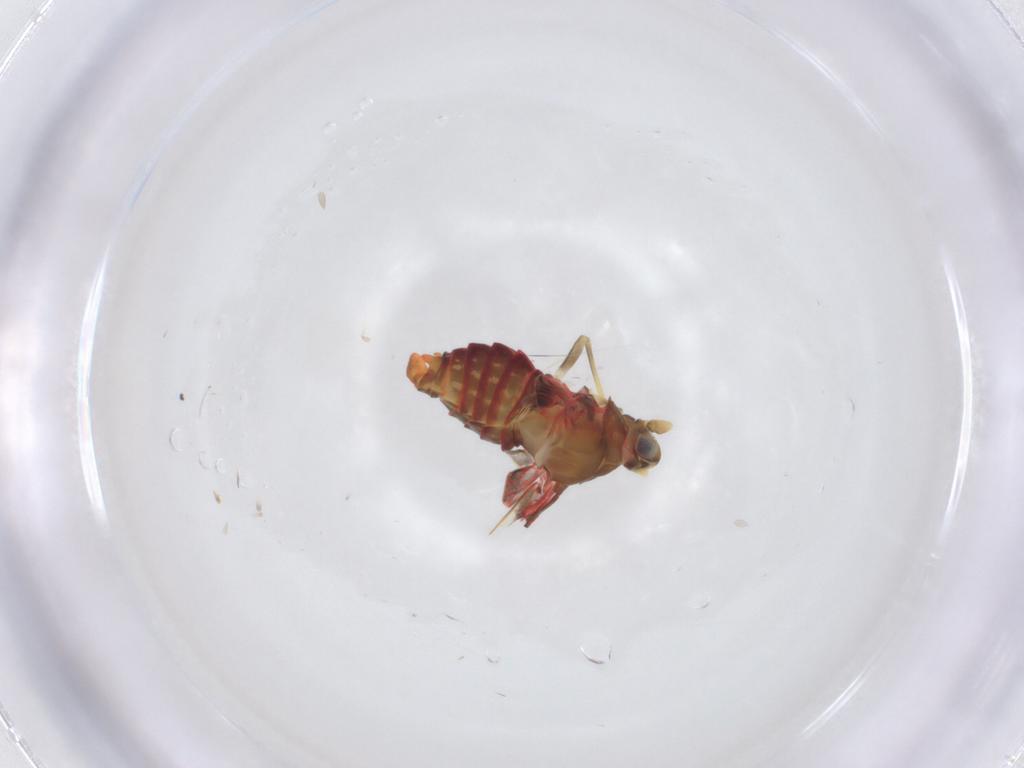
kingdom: Animalia
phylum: Arthropoda
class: Insecta
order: Hemiptera
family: Derbidae
